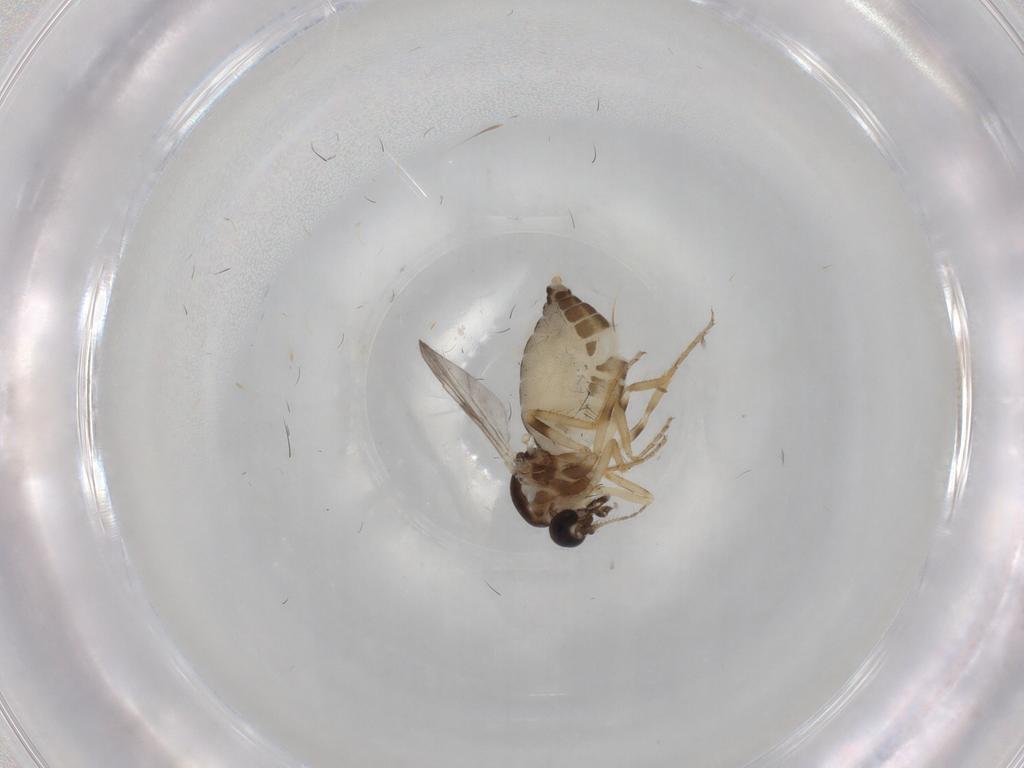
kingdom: Animalia
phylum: Arthropoda
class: Insecta
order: Diptera
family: Ceratopogonidae
